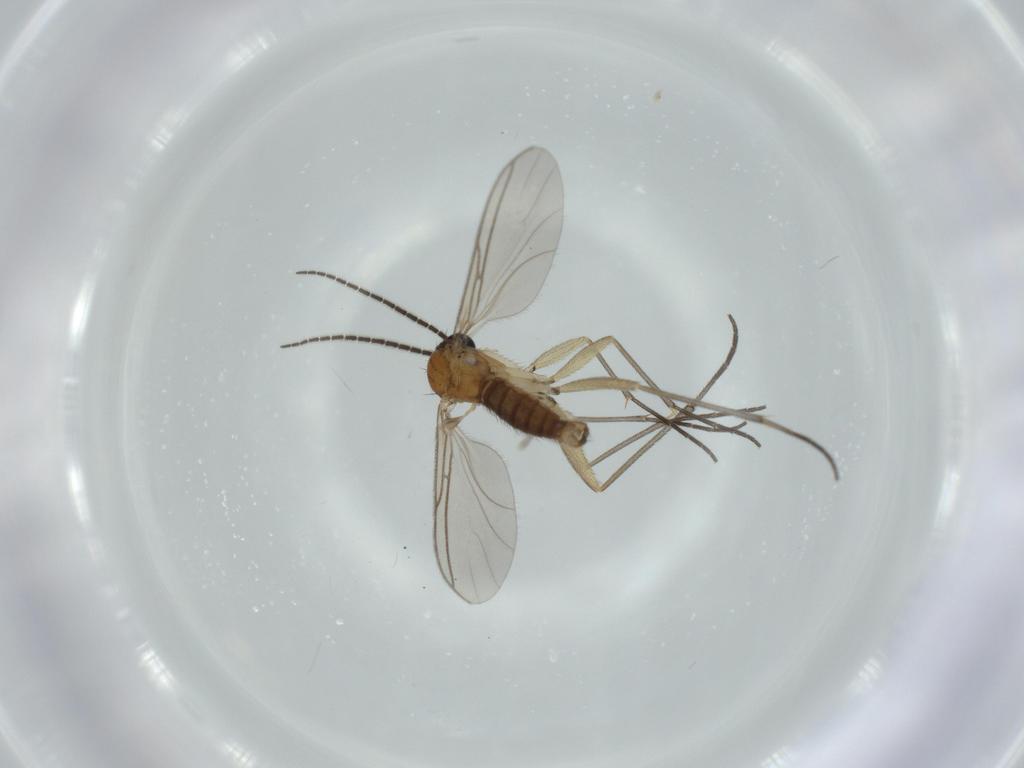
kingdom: Animalia
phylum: Arthropoda
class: Insecta
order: Diptera
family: Sciaridae
